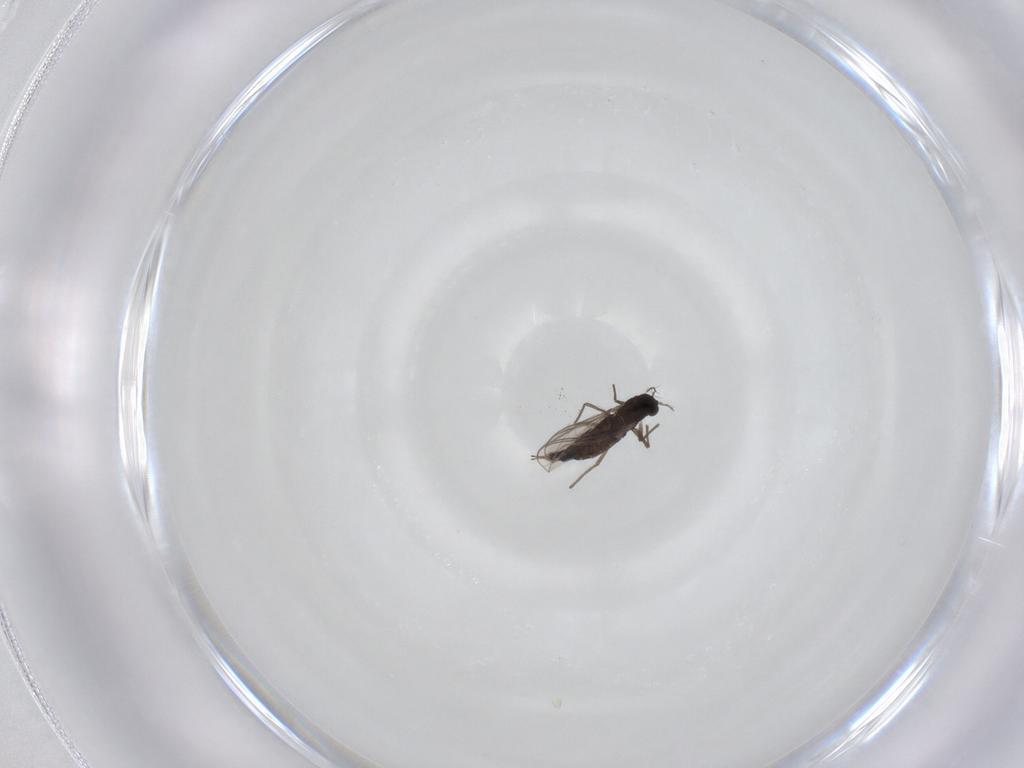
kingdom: Animalia
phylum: Arthropoda
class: Insecta
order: Diptera
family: Chironomidae
